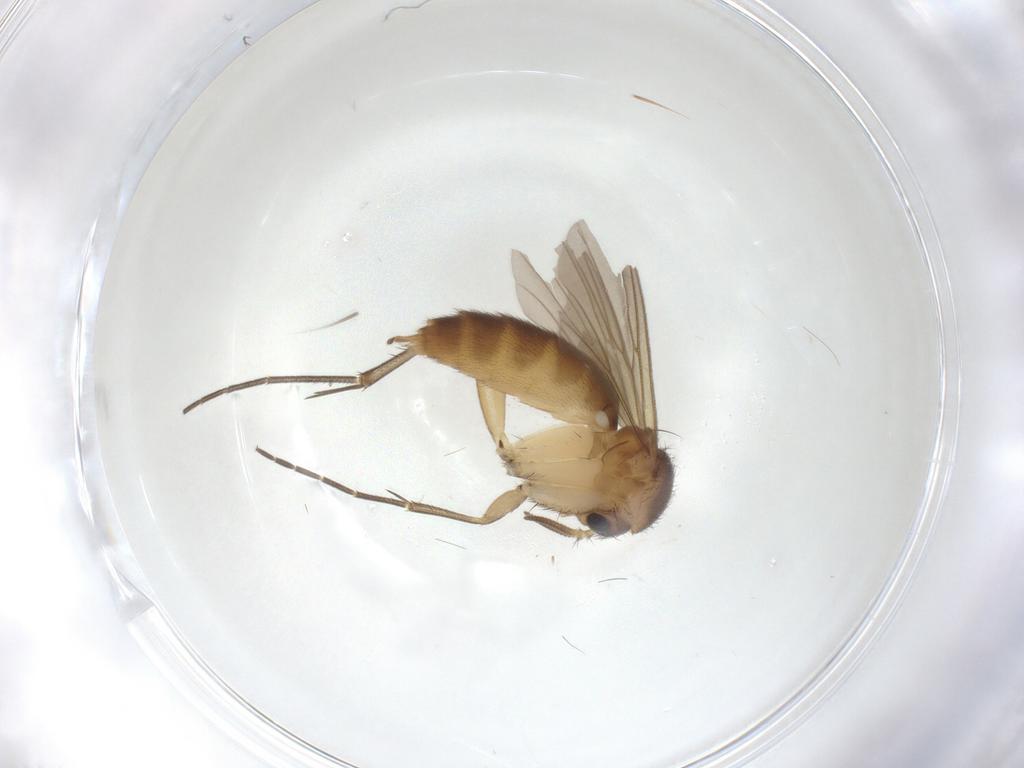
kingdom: Animalia
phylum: Arthropoda
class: Insecta
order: Diptera
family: Mycetophilidae
